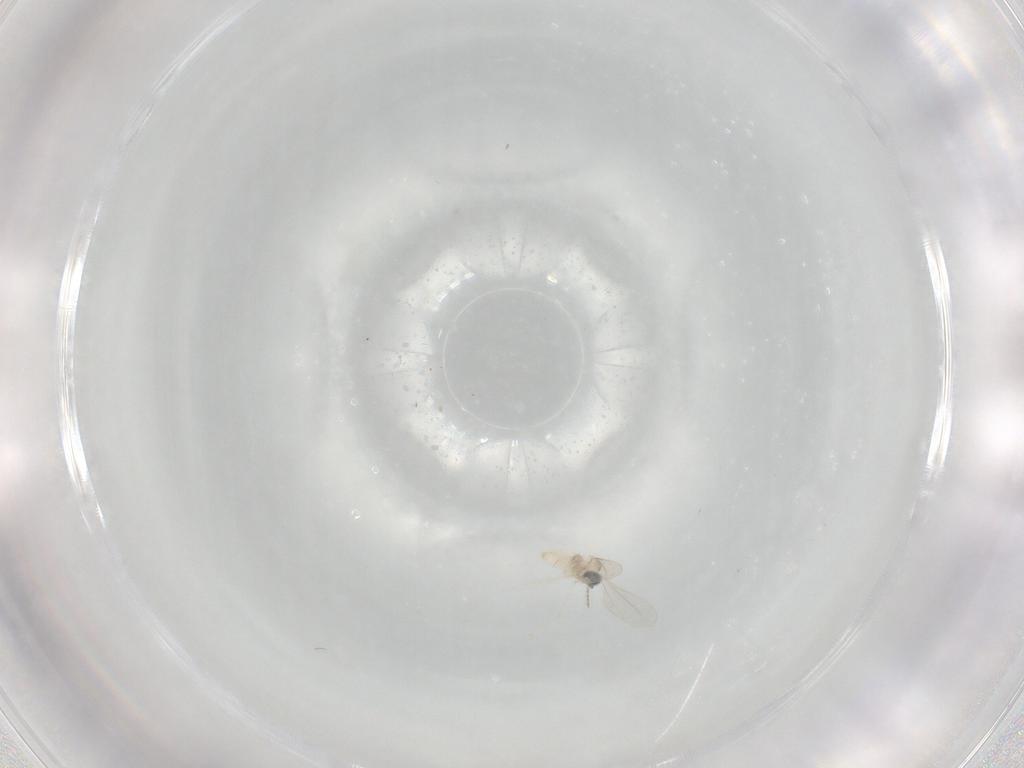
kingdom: Animalia
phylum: Arthropoda
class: Insecta
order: Diptera
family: Cecidomyiidae
